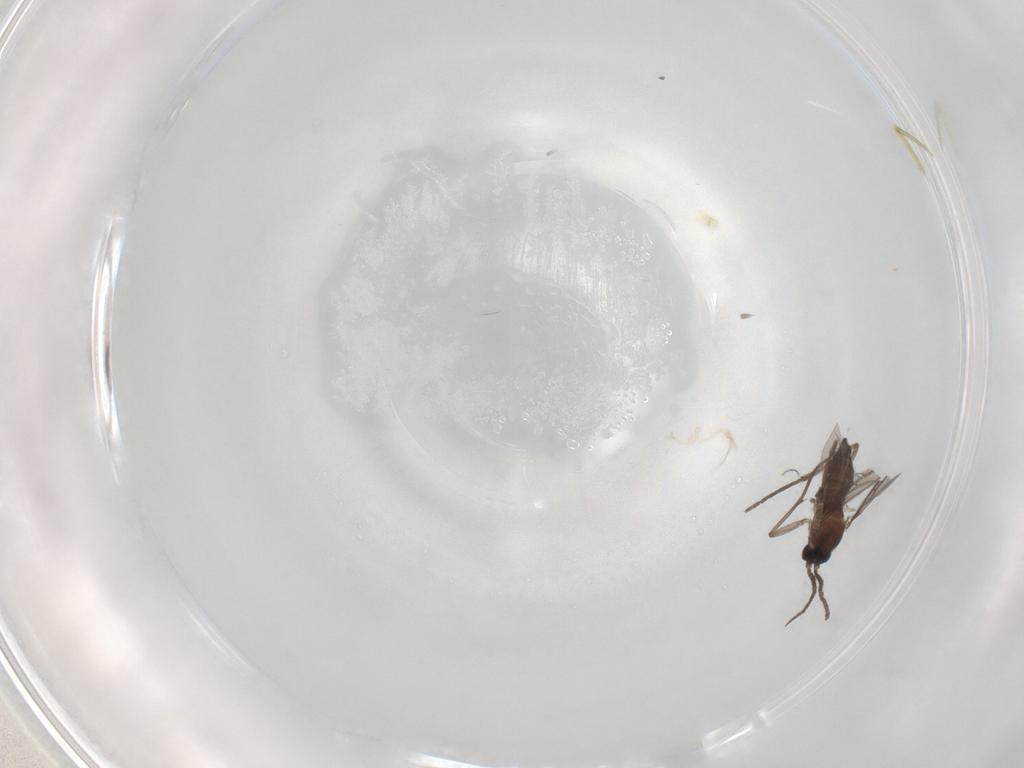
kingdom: Animalia
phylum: Arthropoda
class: Insecta
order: Diptera
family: Sciaridae
